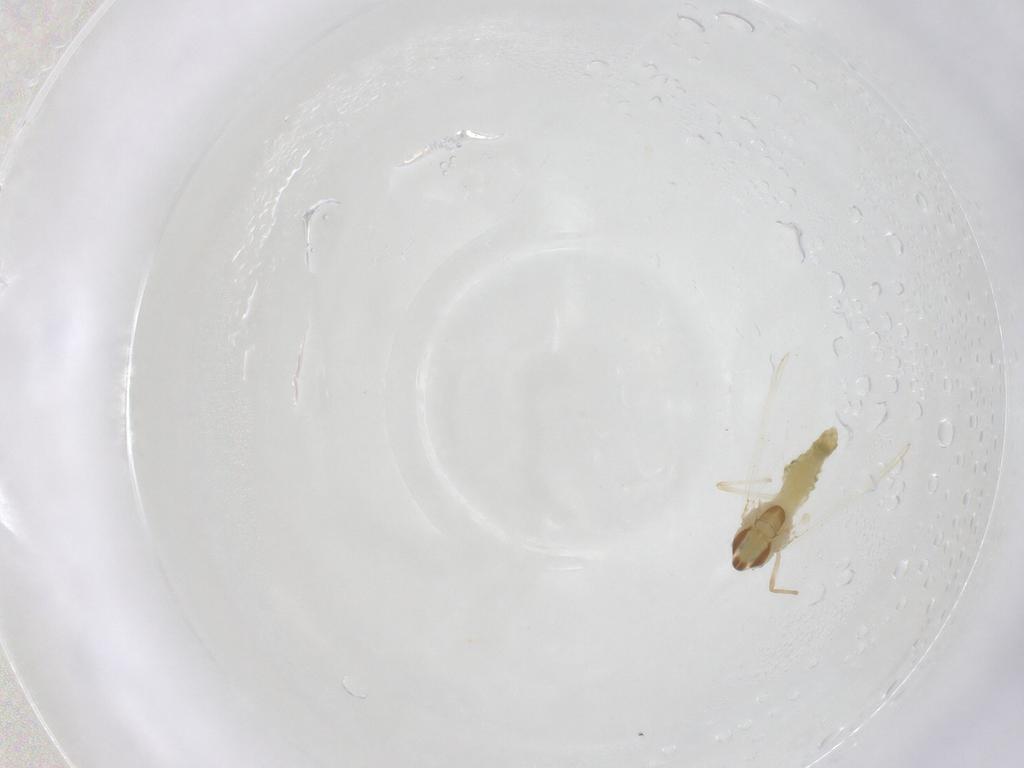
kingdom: Animalia
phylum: Arthropoda
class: Insecta
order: Diptera
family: Chironomidae
